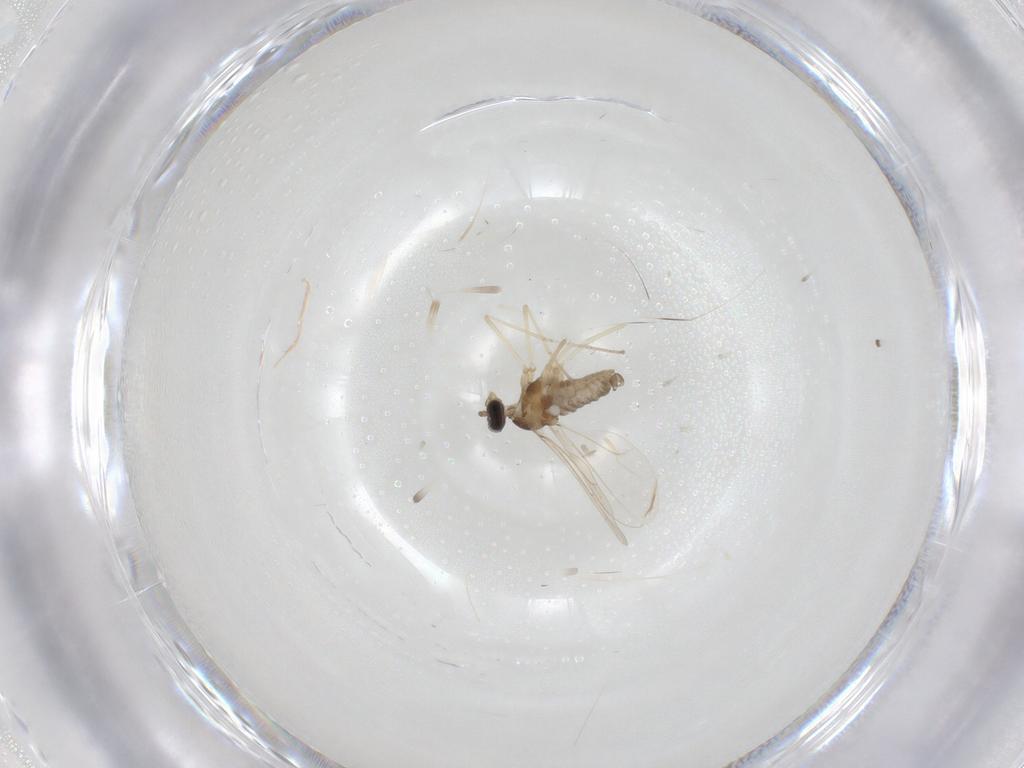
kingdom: Animalia
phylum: Arthropoda
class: Insecta
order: Diptera
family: Cecidomyiidae
